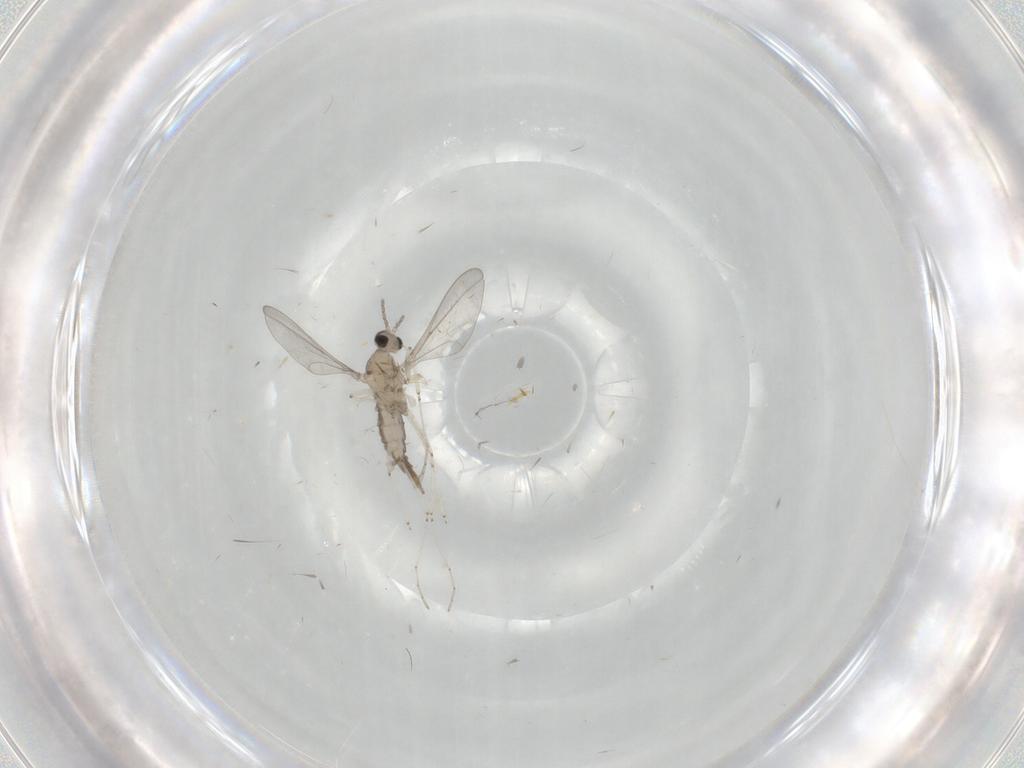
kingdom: Animalia
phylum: Arthropoda
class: Insecta
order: Diptera
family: Cecidomyiidae
